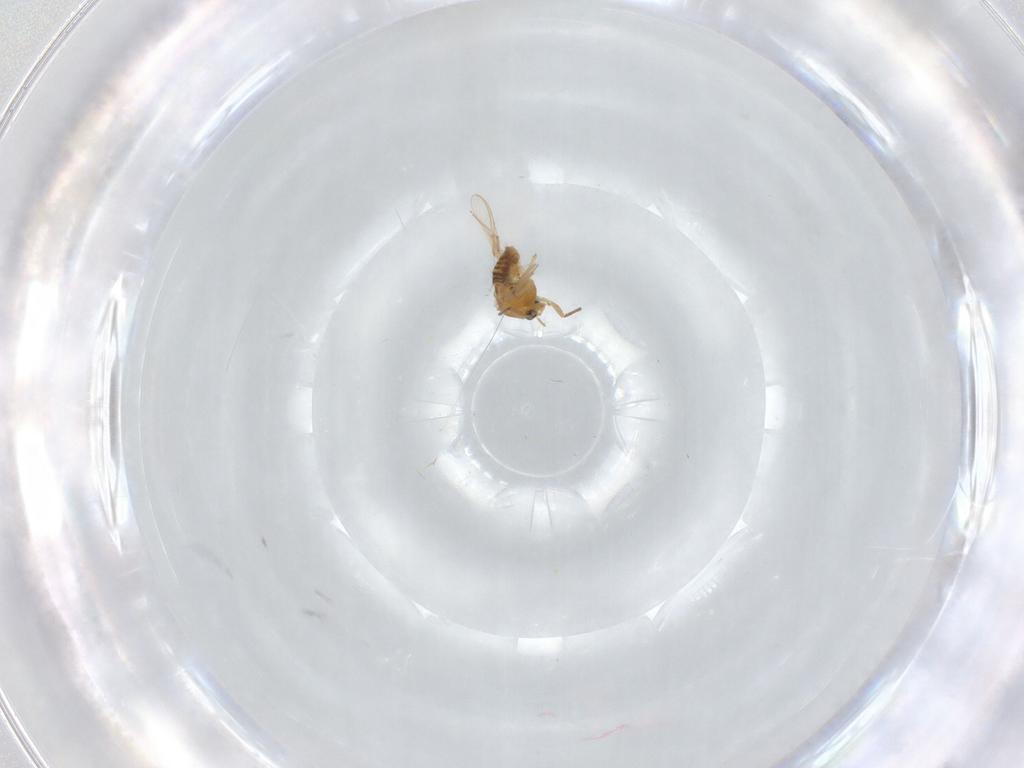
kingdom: Animalia
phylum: Arthropoda
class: Insecta
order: Diptera
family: Chironomidae
